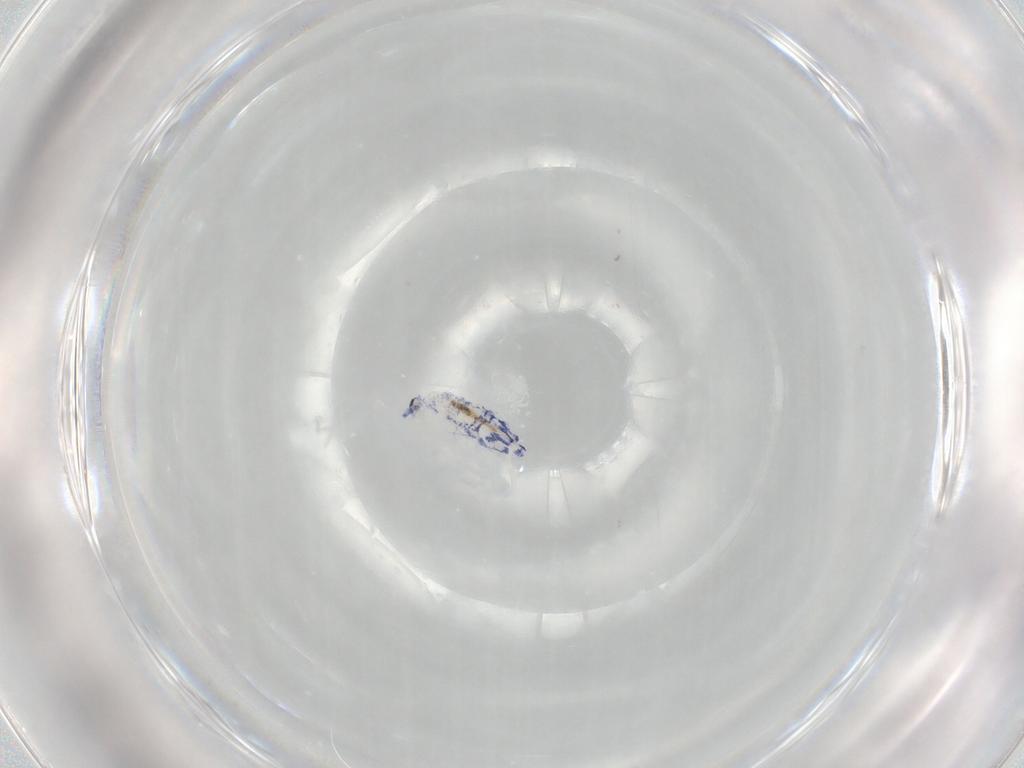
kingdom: Animalia
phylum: Arthropoda
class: Collembola
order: Entomobryomorpha
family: Entomobryidae
